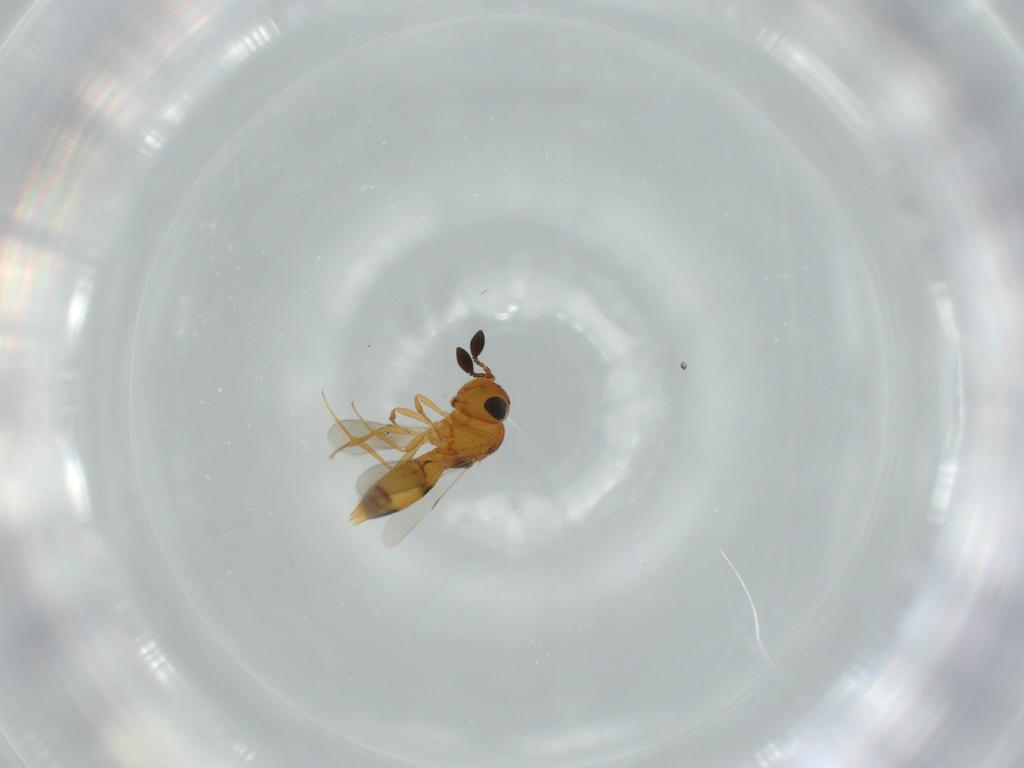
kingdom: Animalia
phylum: Arthropoda
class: Insecta
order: Hymenoptera
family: Scelionidae
